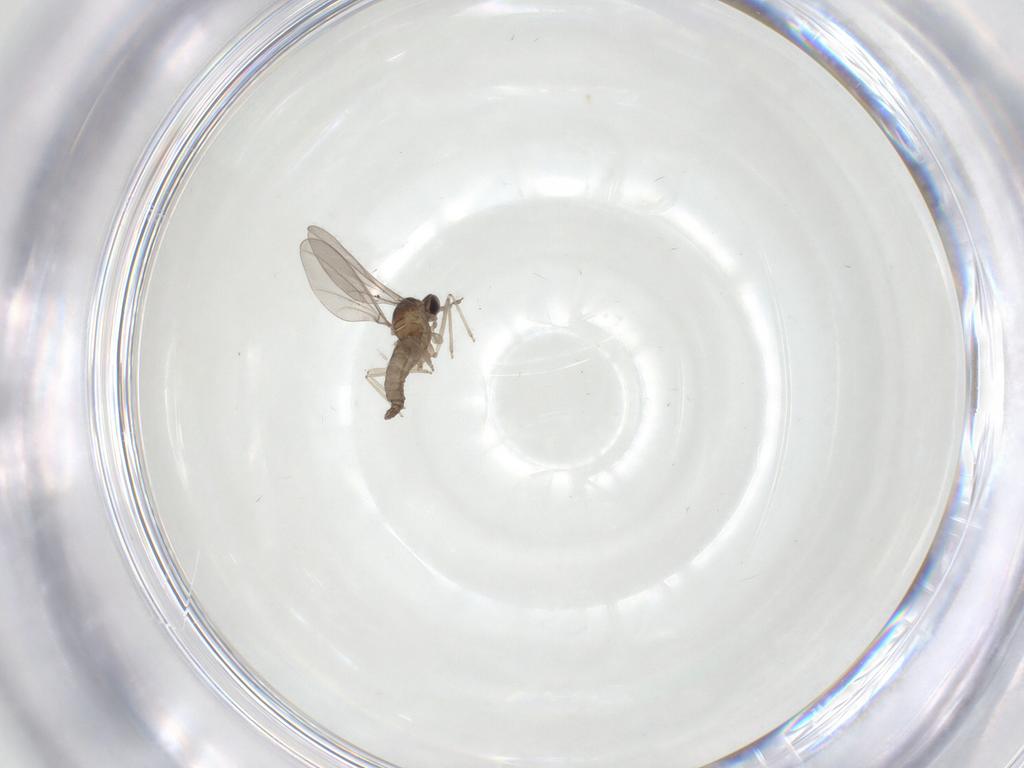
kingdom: Animalia
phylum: Arthropoda
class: Insecta
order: Diptera
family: Cecidomyiidae
